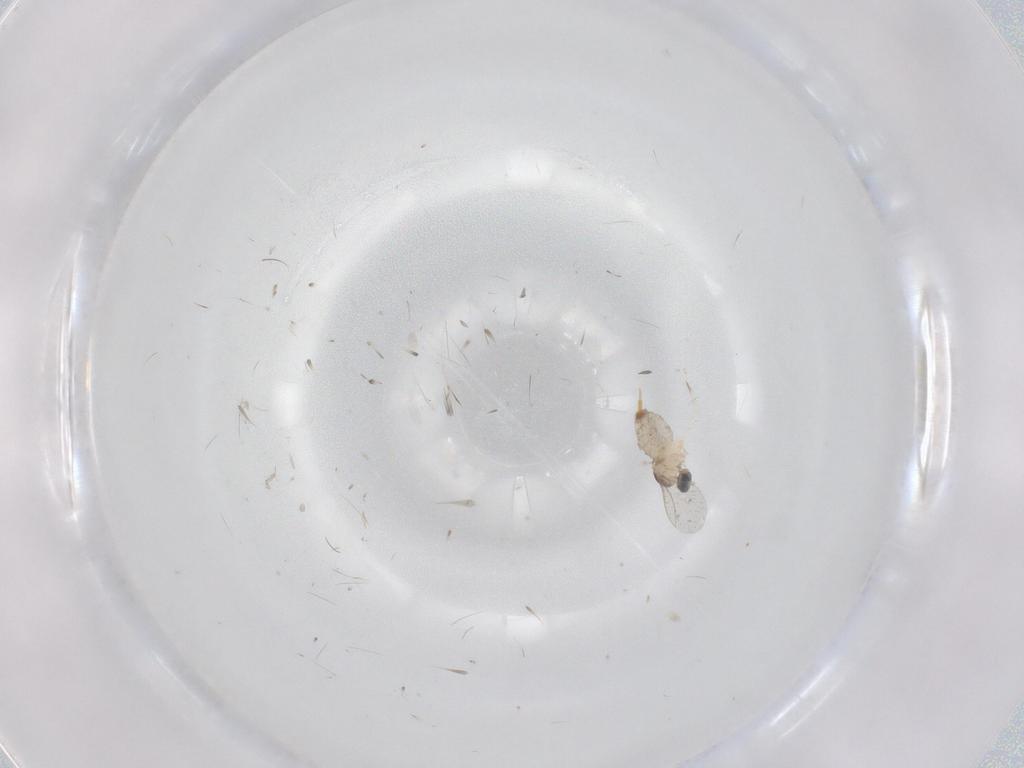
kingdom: Animalia
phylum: Arthropoda
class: Insecta
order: Diptera
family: Cecidomyiidae
